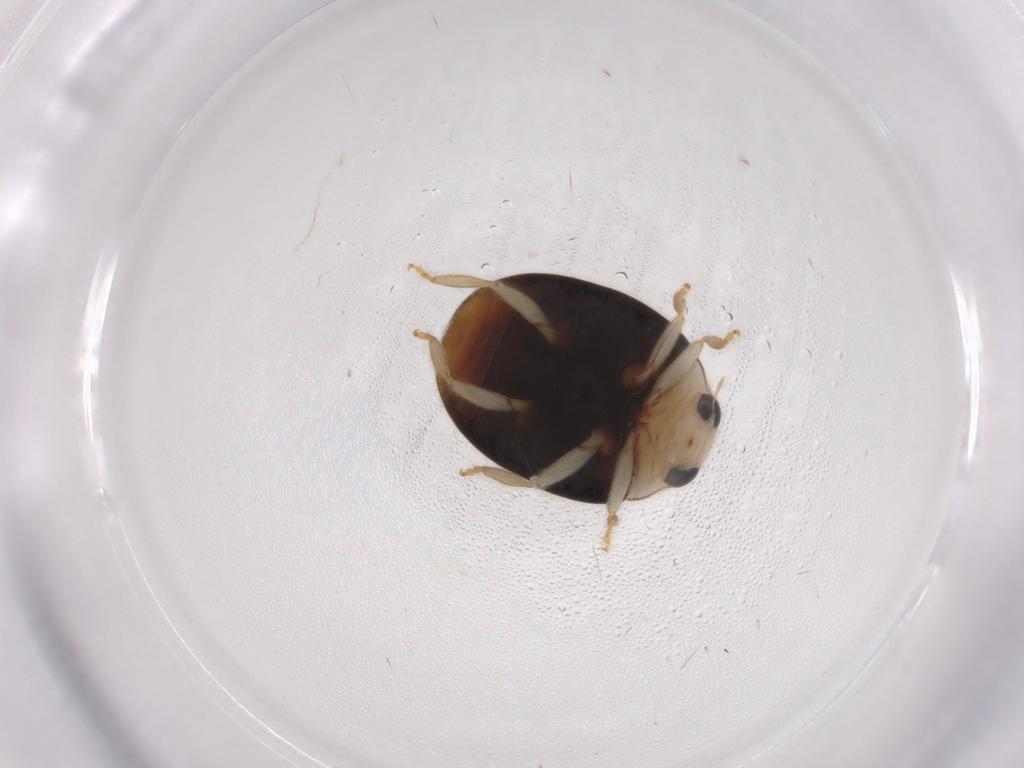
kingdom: Animalia
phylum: Arthropoda
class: Insecta
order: Coleoptera
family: Coccinellidae
